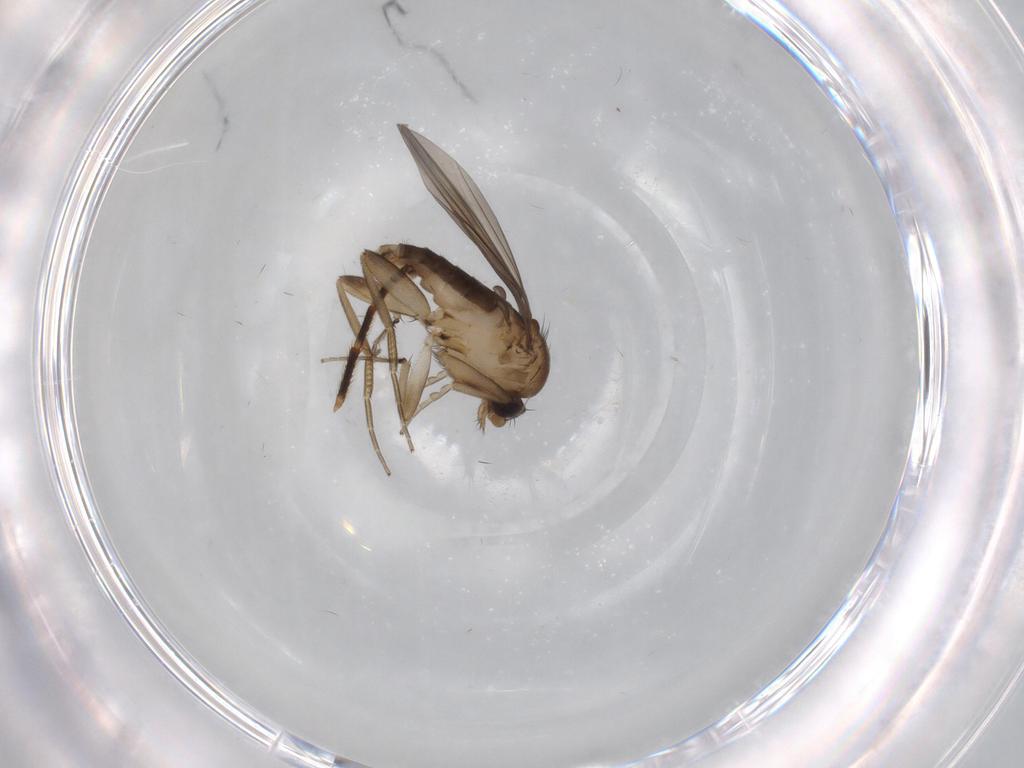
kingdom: Animalia
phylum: Arthropoda
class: Insecta
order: Diptera
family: Phoridae
